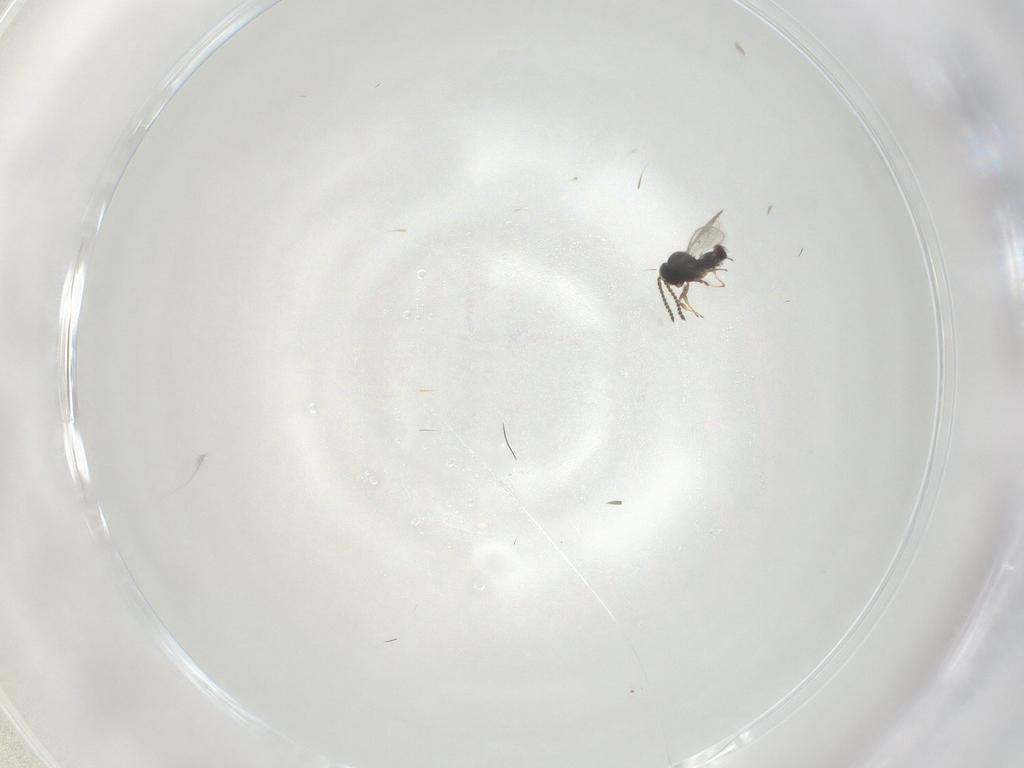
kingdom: Animalia
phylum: Arthropoda
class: Insecta
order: Hymenoptera
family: Scelionidae
